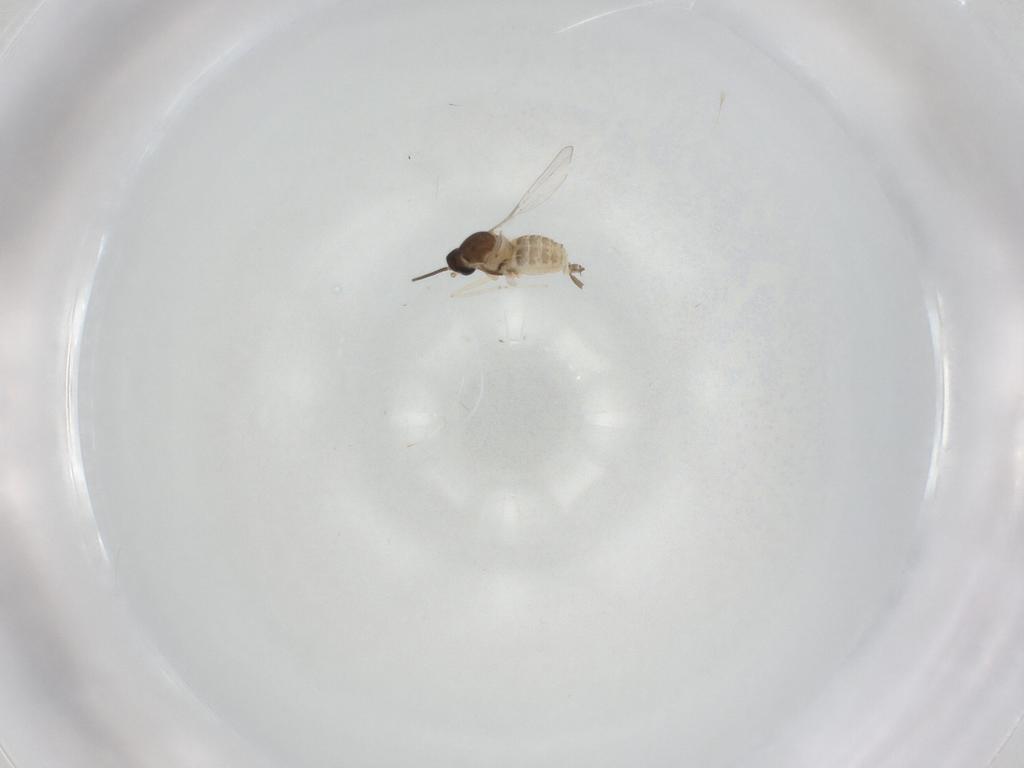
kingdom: Animalia
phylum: Arthropoda
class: Insecta
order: Diptera
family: Cecidomyiidae
